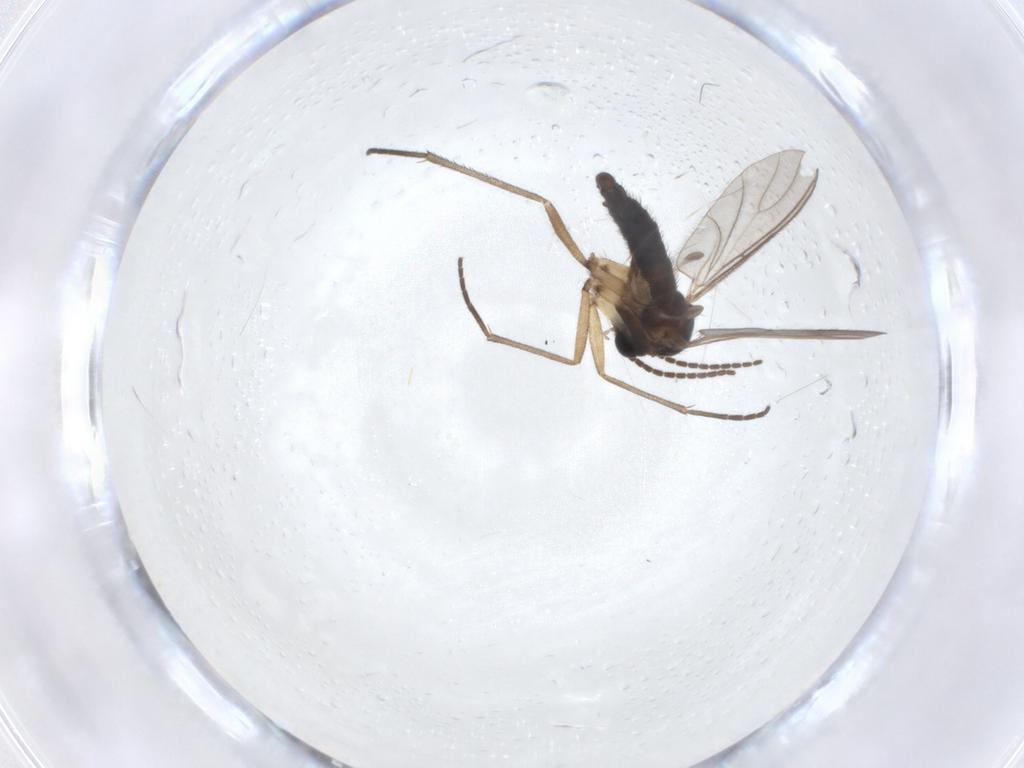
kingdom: Animalia
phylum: Arthropoda
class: Insecta
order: Diptera
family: Sciaridae
